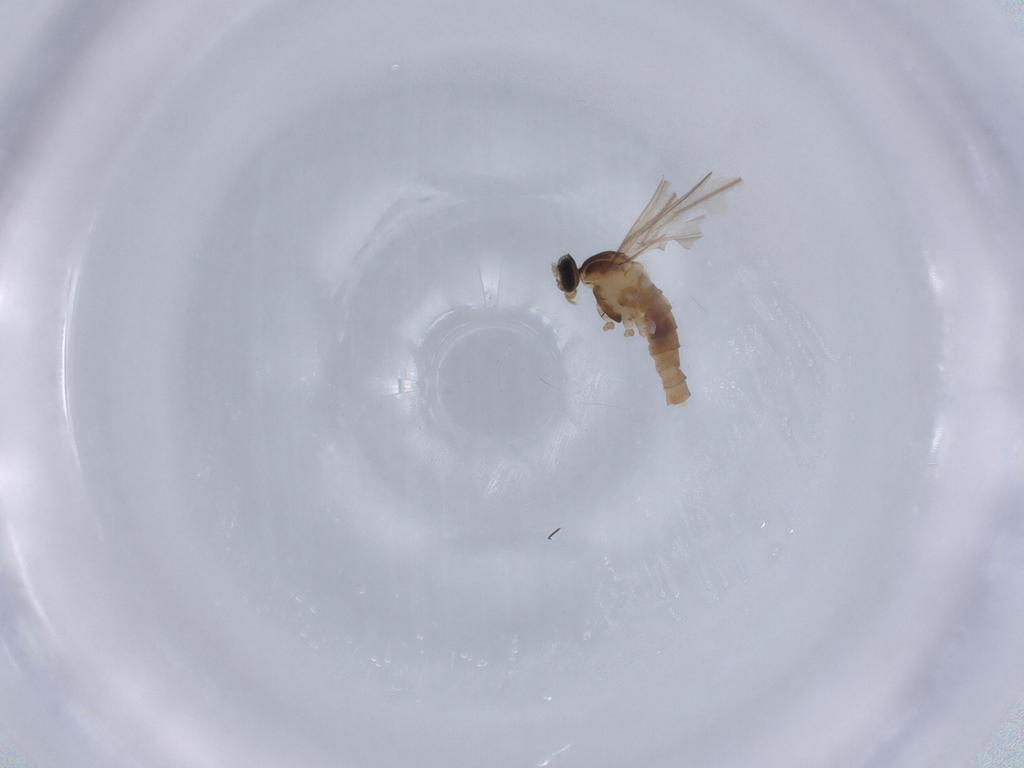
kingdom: Animalia
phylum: Arthropoda
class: Insecta
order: Diptera
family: Cecidomyiidae
